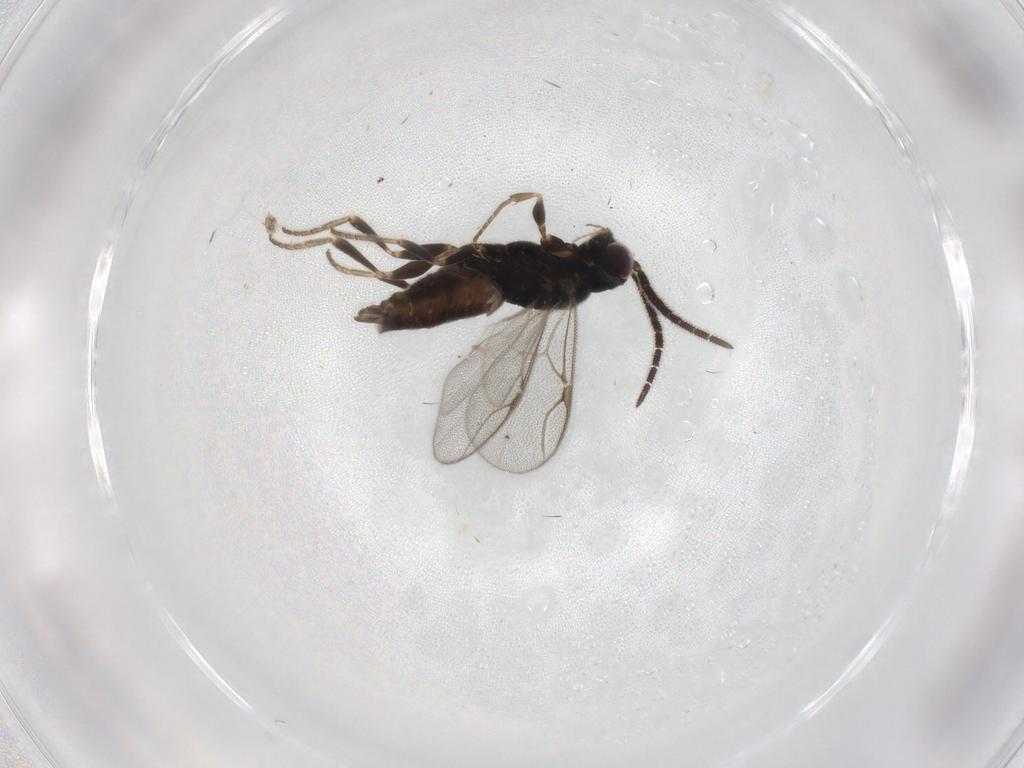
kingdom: Animalia
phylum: Arthropoda
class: Insecta
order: Hymenoptera
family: Dryinidae
